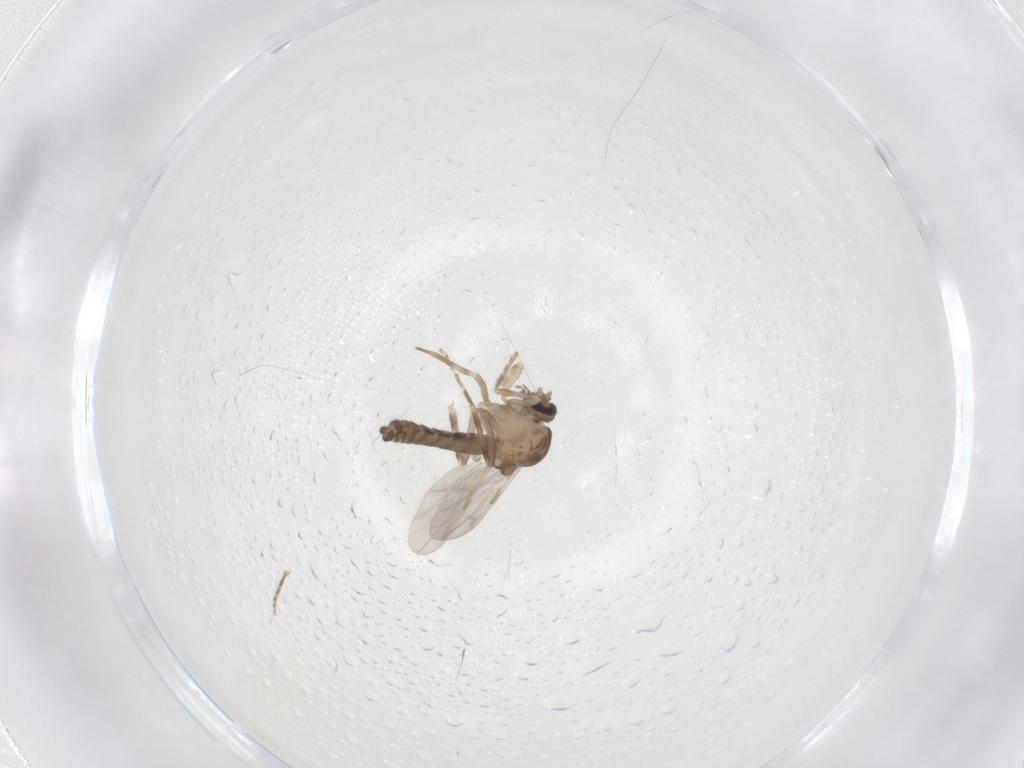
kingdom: Animalia
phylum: Arthropoda
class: Insecta
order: Diptera
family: Ceratopogonidae
